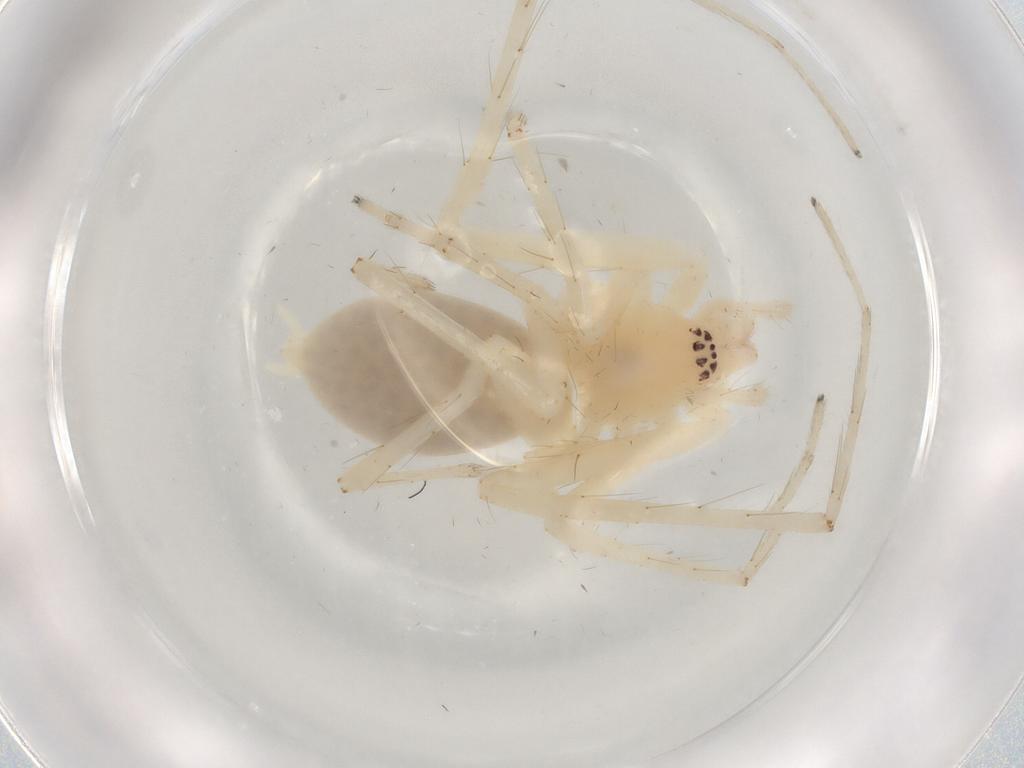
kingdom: Animalia
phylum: Arthropoda
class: Arachnida
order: Araneae
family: Anyphaenidae
